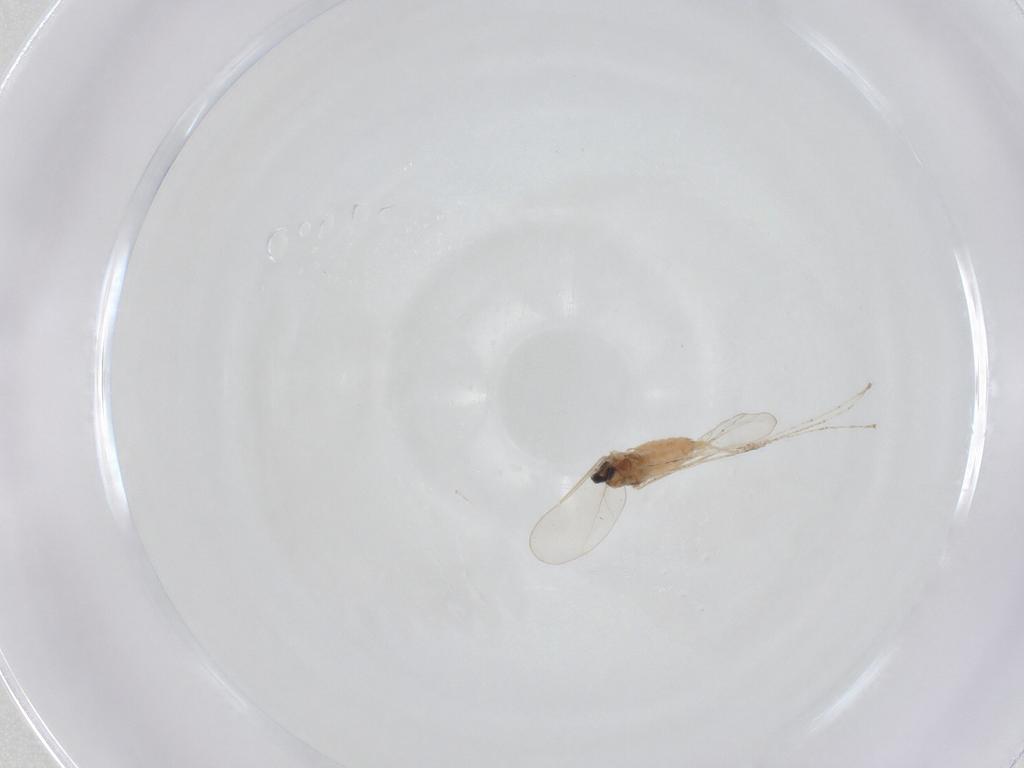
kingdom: Animalia
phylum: Arthropoda
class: Insecta
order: Diptera
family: Cecidomyiidae
